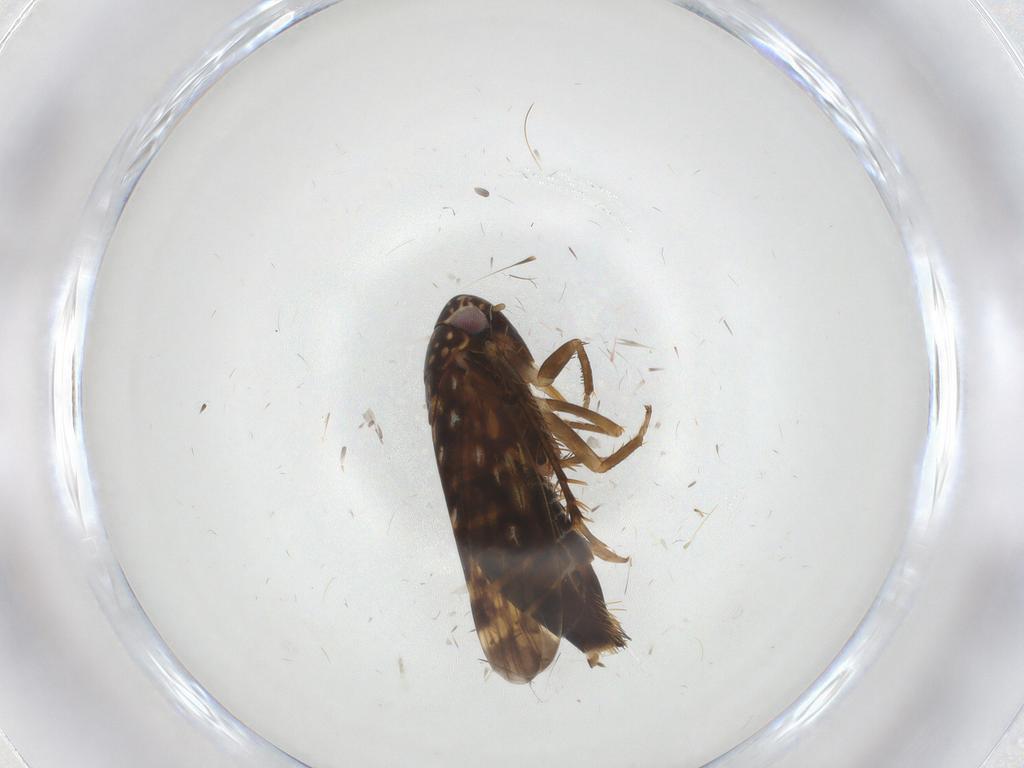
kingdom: Animalia
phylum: Arthropoda
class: Insecta
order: Hemiptera
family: Cicadellidae
